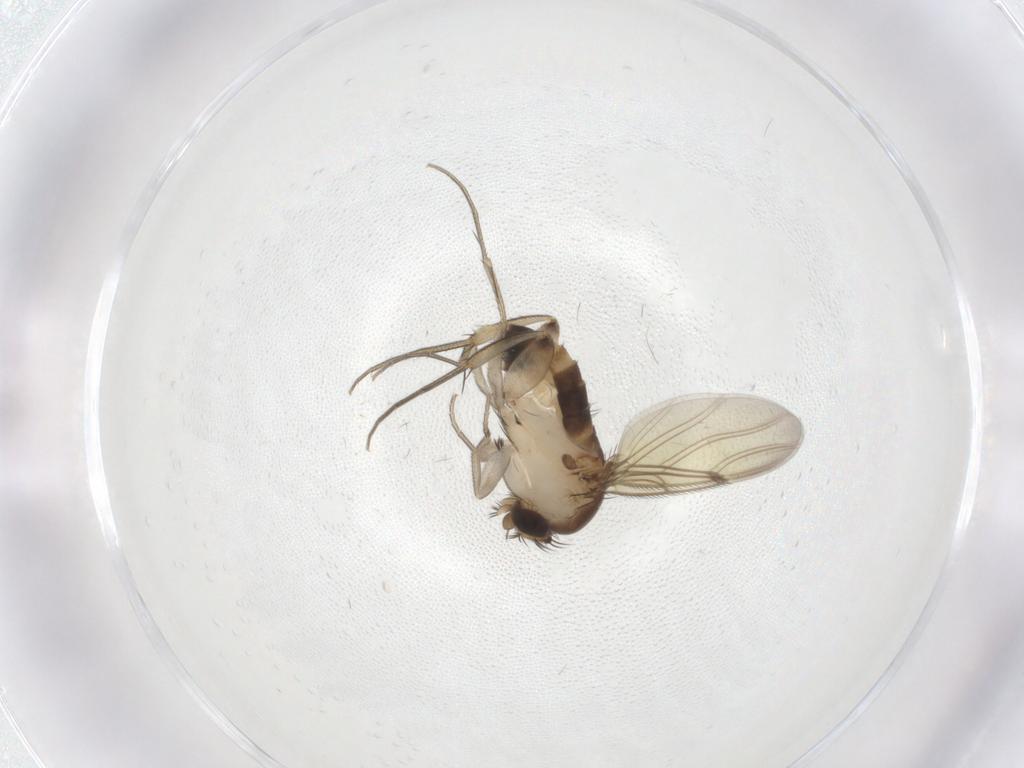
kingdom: Animalia
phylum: Arthropoda
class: Insecta
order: Diptera
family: Phoridae
